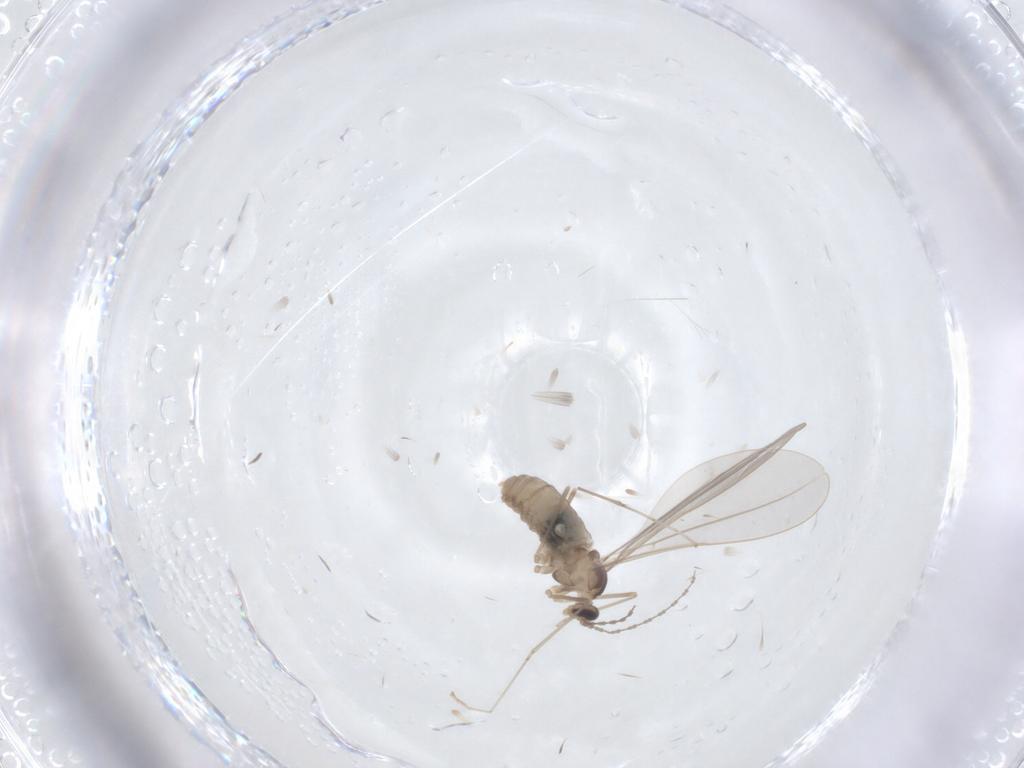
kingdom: Animalia
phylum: Arthropoda
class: Insecta
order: Diptera
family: Cecidomyiidae
